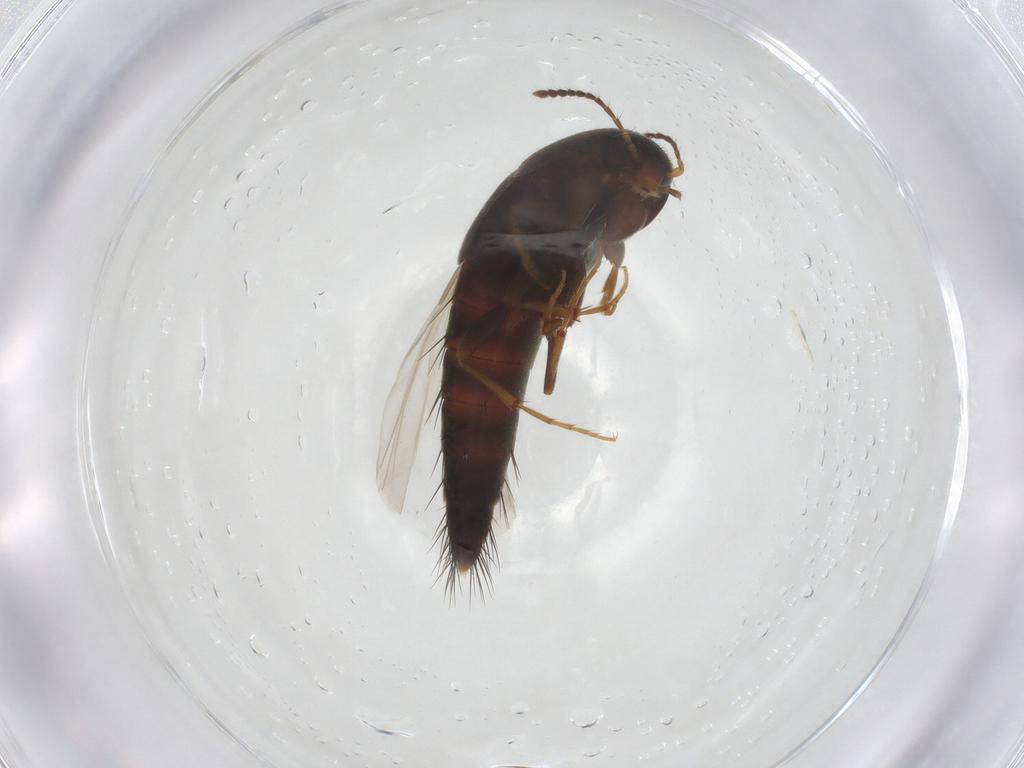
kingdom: Animalia
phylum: Arthropoda
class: Insecta
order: Coleoptera
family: Staphylinidae
